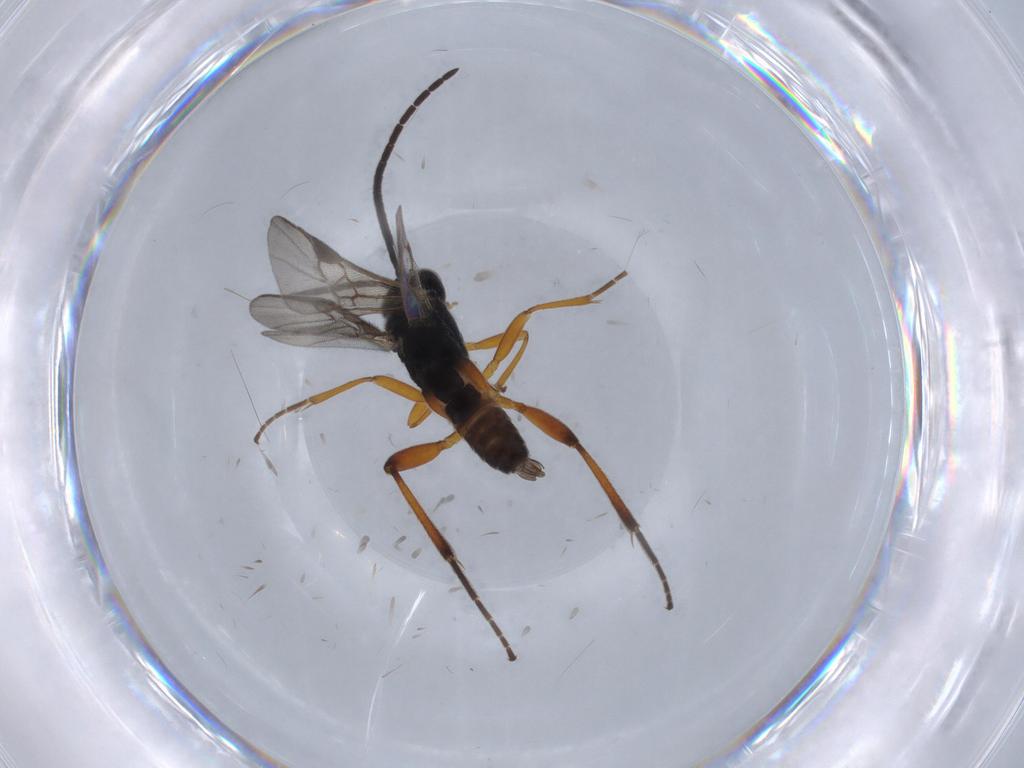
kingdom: Animalia
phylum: Arthropoda
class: Insecta
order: Hymenoptera
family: Braconidae
